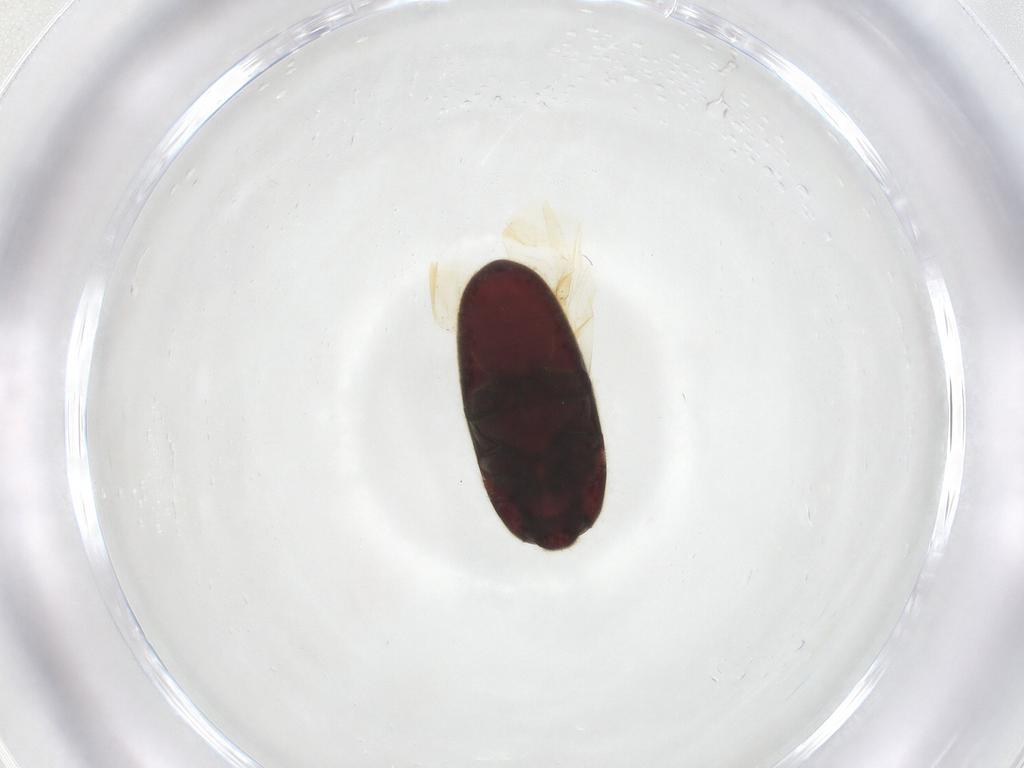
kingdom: Animalia
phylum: Arthropoda
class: Insecta
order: Coleoptera
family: Throscidae
